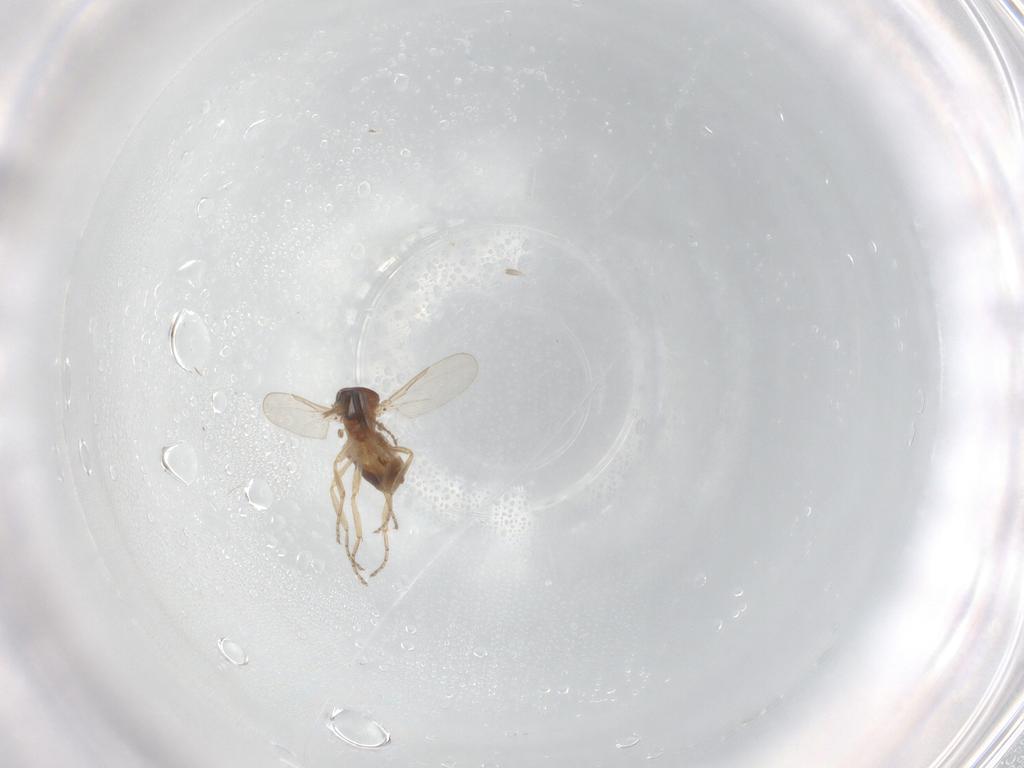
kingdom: Animalia
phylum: Arthropoda
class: Insecta
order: Diptera
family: Ceratopogonidae
